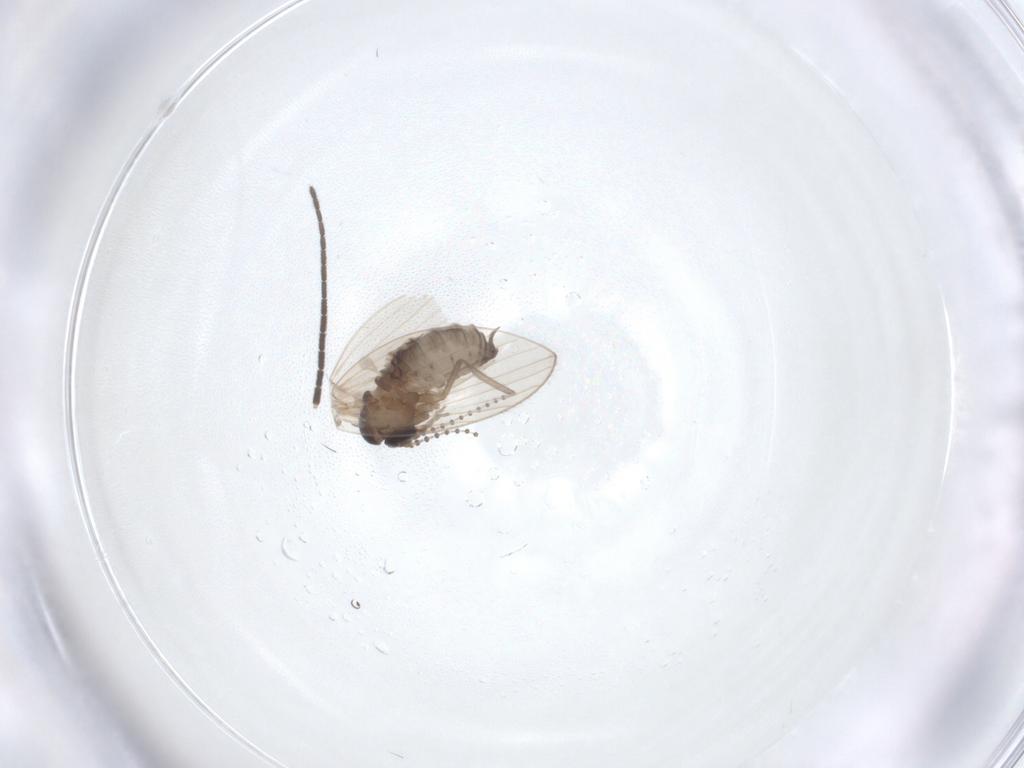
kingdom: Animalia
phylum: Arthropoda
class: Insecta
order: Diptera
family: Psychodidae
